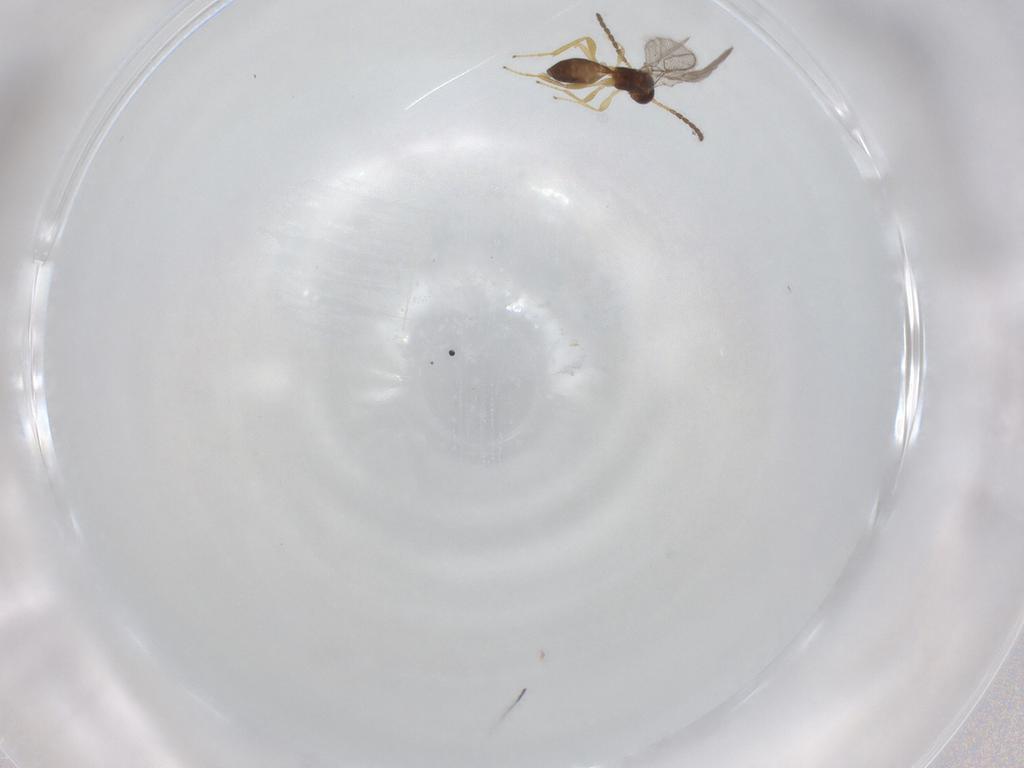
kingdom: Animalia
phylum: Arthropoda
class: Insecta
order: Hymenoptera
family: Braconidae
